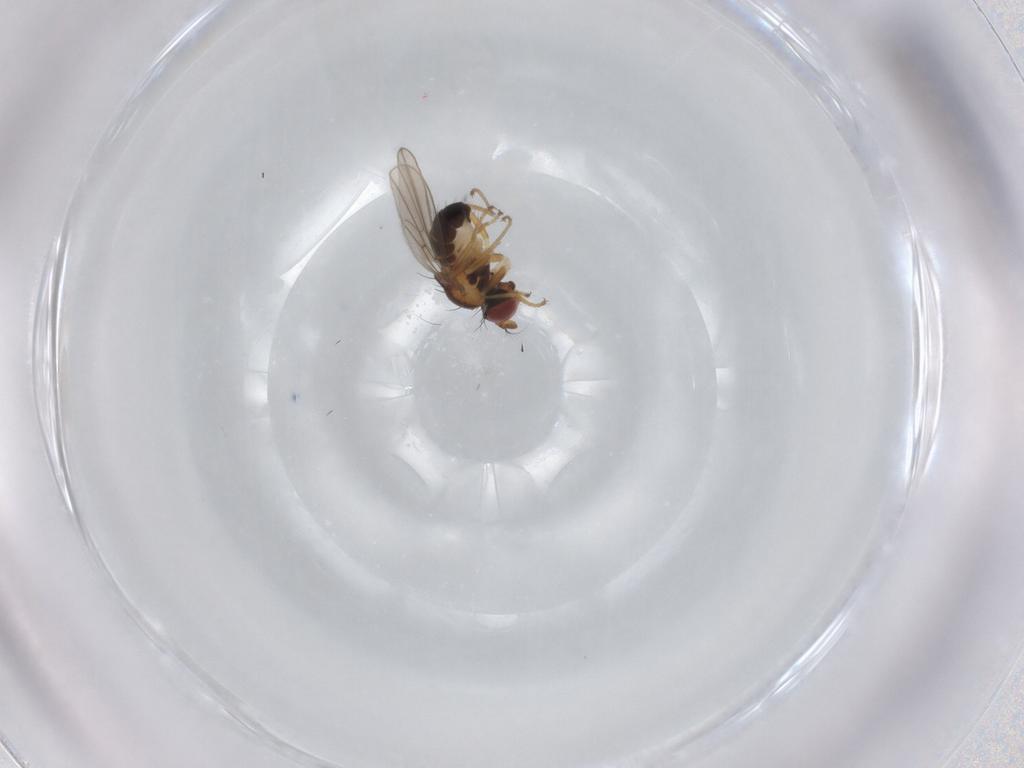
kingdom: Animalia
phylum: Arthropoda
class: Insecta
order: Diptera
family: Ephydridae
